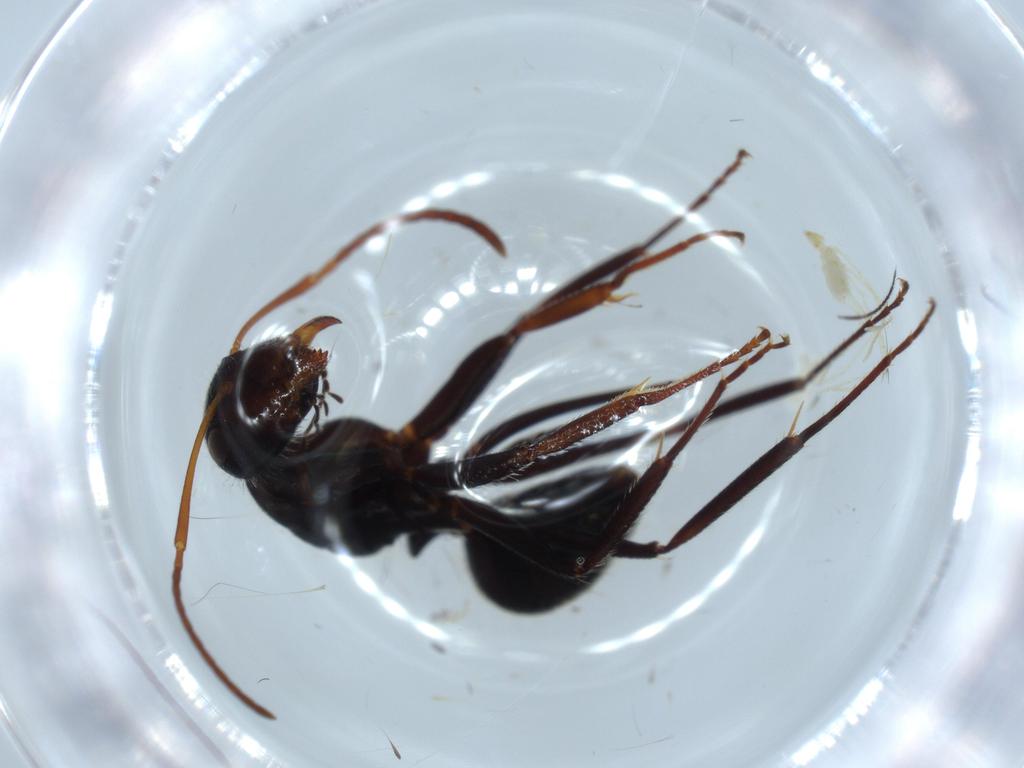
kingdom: Animalia
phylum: Arthropoda
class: Insecta
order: Hymenoptera
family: Formicidae
